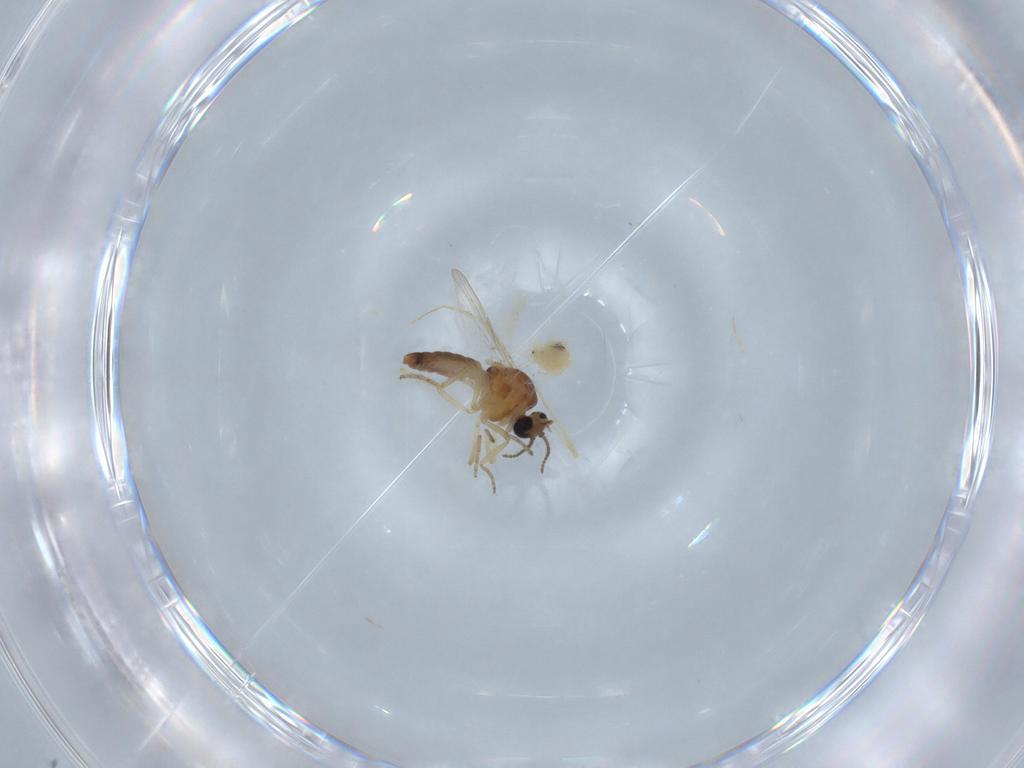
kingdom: Animalia
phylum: Arthropoda
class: Insecta
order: Diptera
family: Ceratopogonidae
